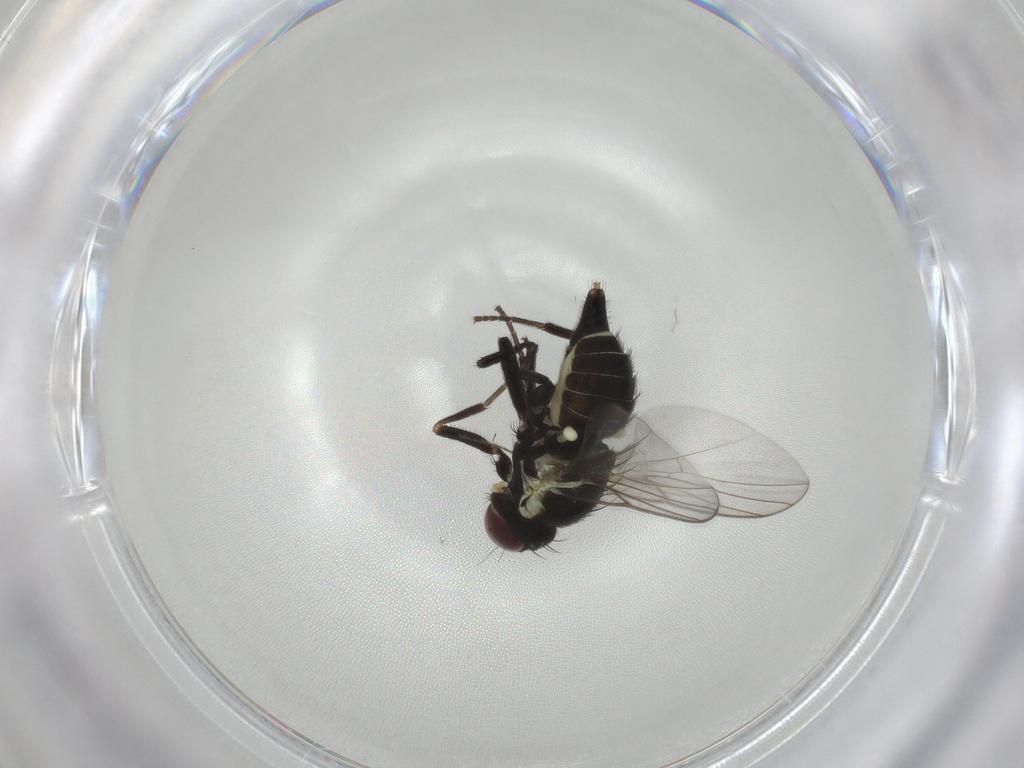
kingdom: Animalia
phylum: Arthropoda
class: Insecta
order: Diptera
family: Agromyzidae
